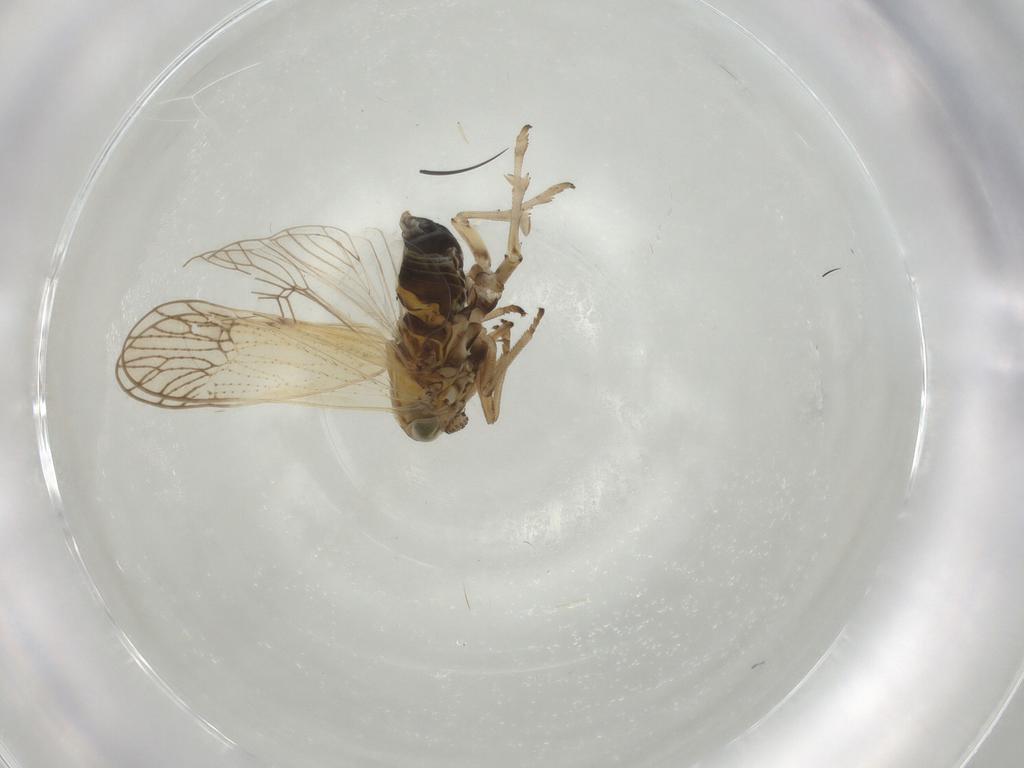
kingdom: Animalia
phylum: Arthropoda
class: Insecta
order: Hemiptera
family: Delphacidae
